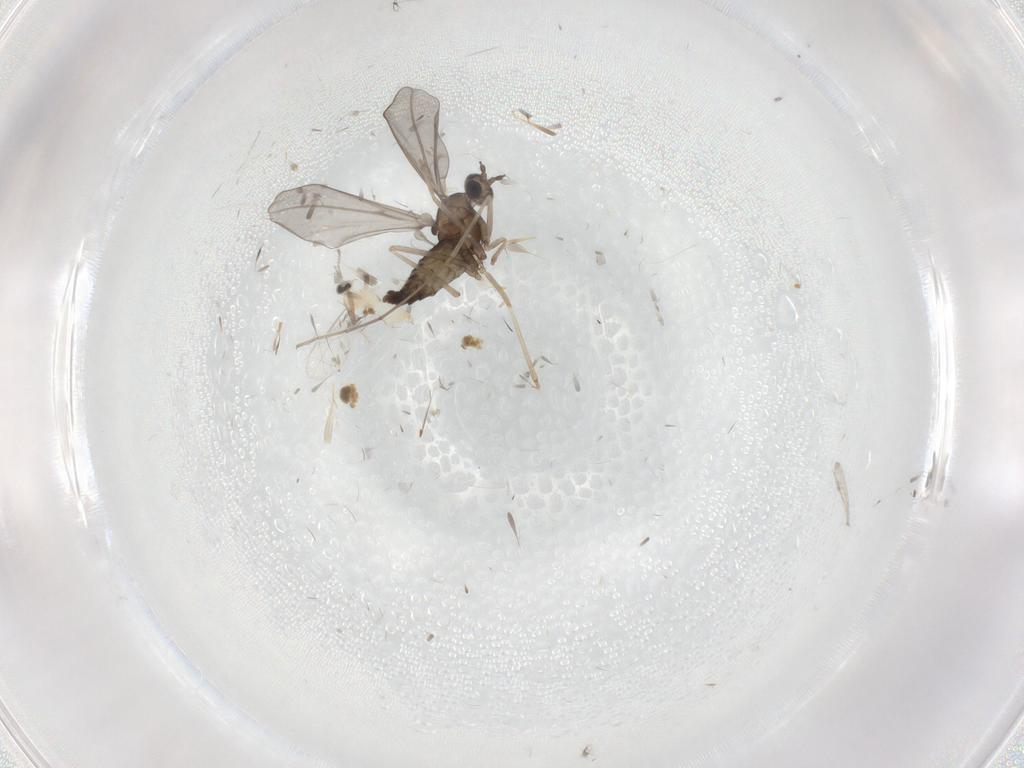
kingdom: Animalia
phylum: Arthropoda
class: Insecta
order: Diptera
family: Cecidomyiidae
